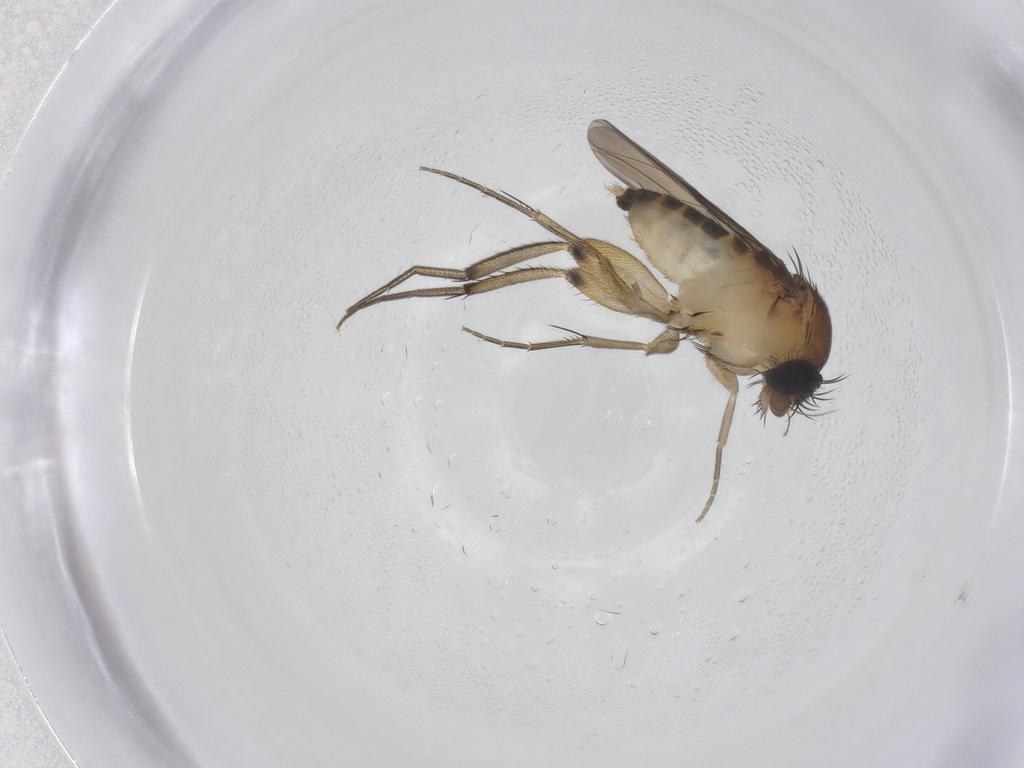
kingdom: Animalia
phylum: Arthropoda
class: Insecta
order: Diptera
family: Phoridae
